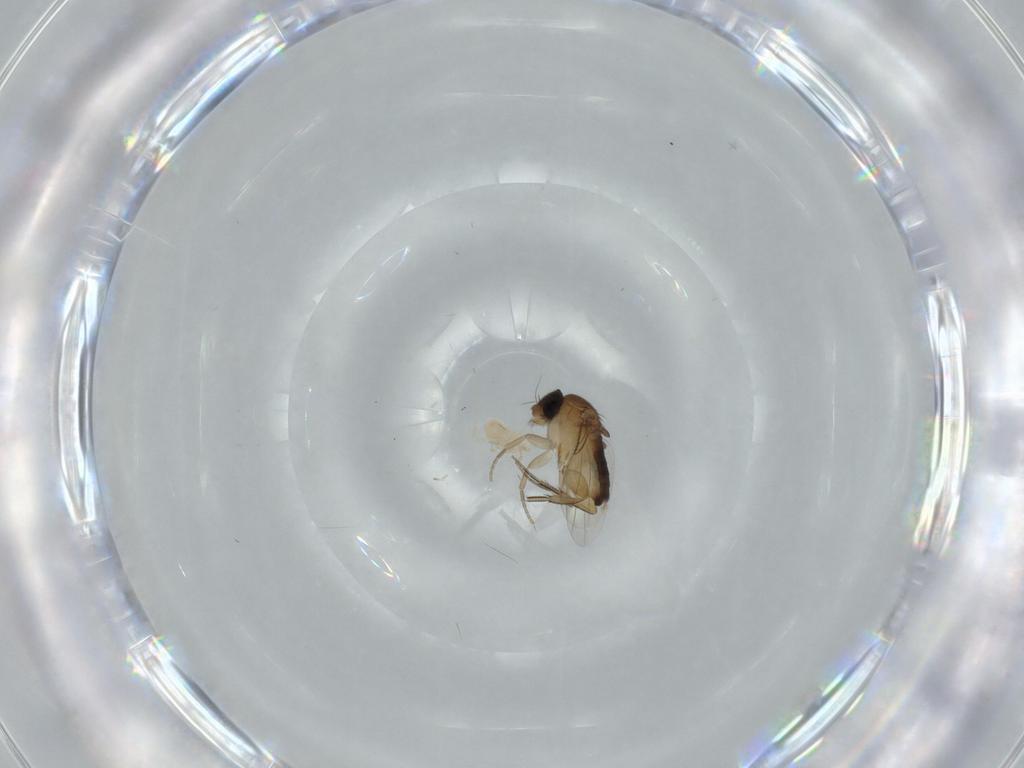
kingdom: Animalia
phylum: Arthropoda
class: Insecta
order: Diptera
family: Phoridae
